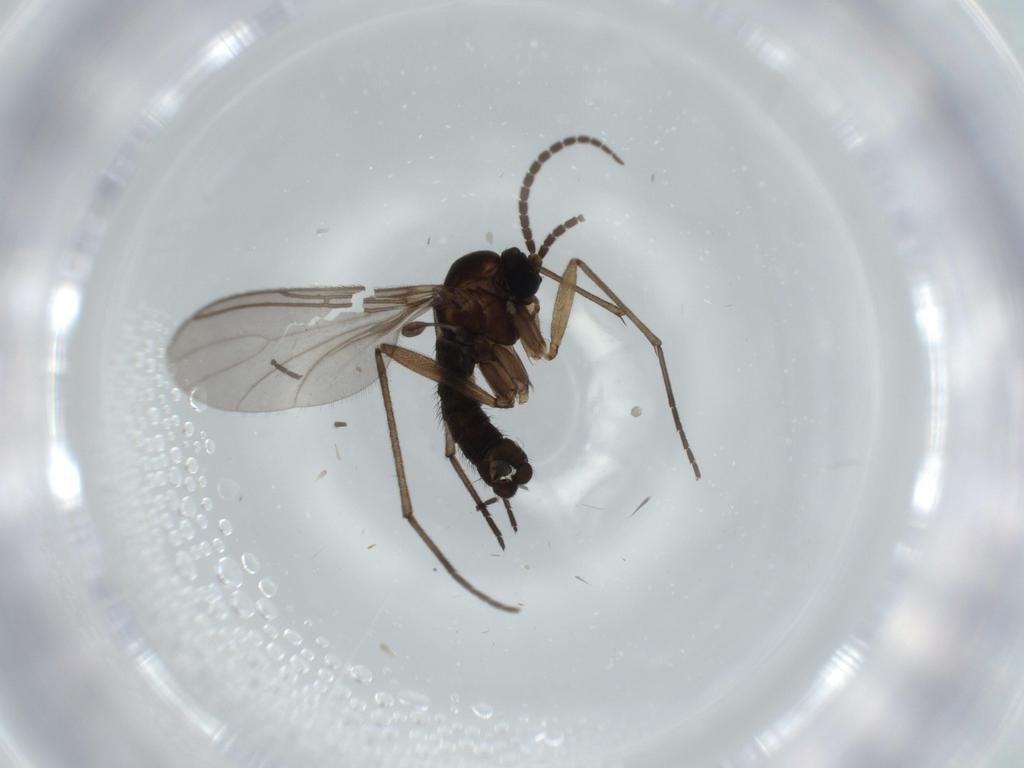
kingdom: Animalia
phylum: Arthropoda
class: Insecta
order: Diptera
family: Sciaridae
